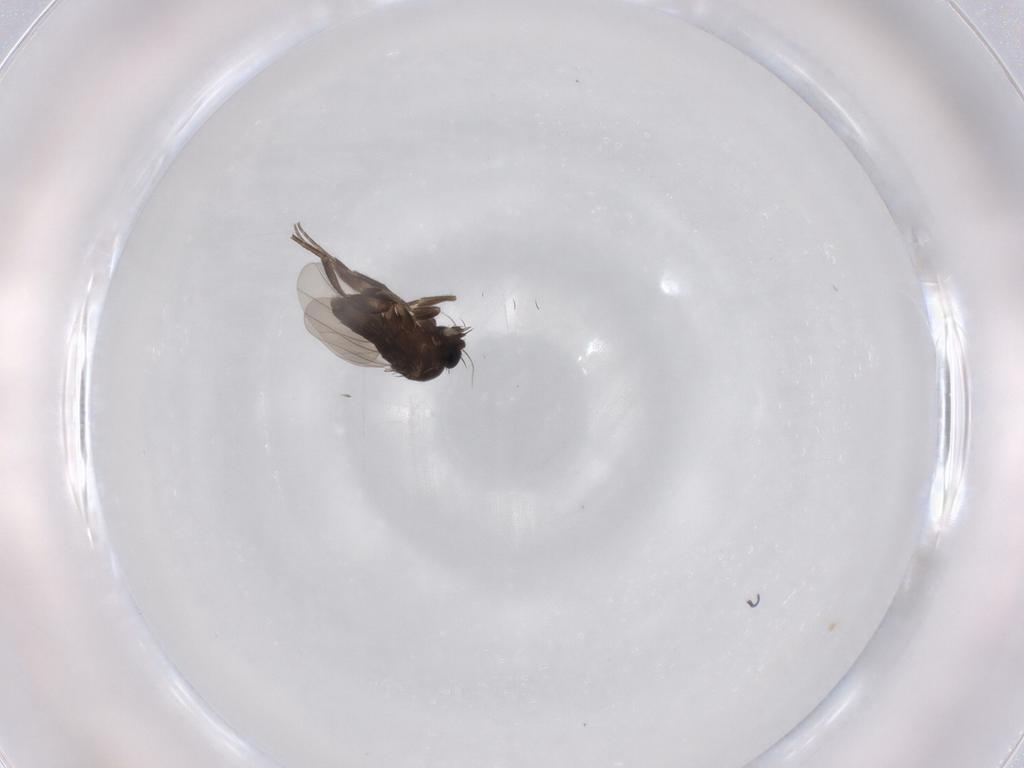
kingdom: Animalia
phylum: Arthropoda
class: Insecta
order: Diptera
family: Phoridae
